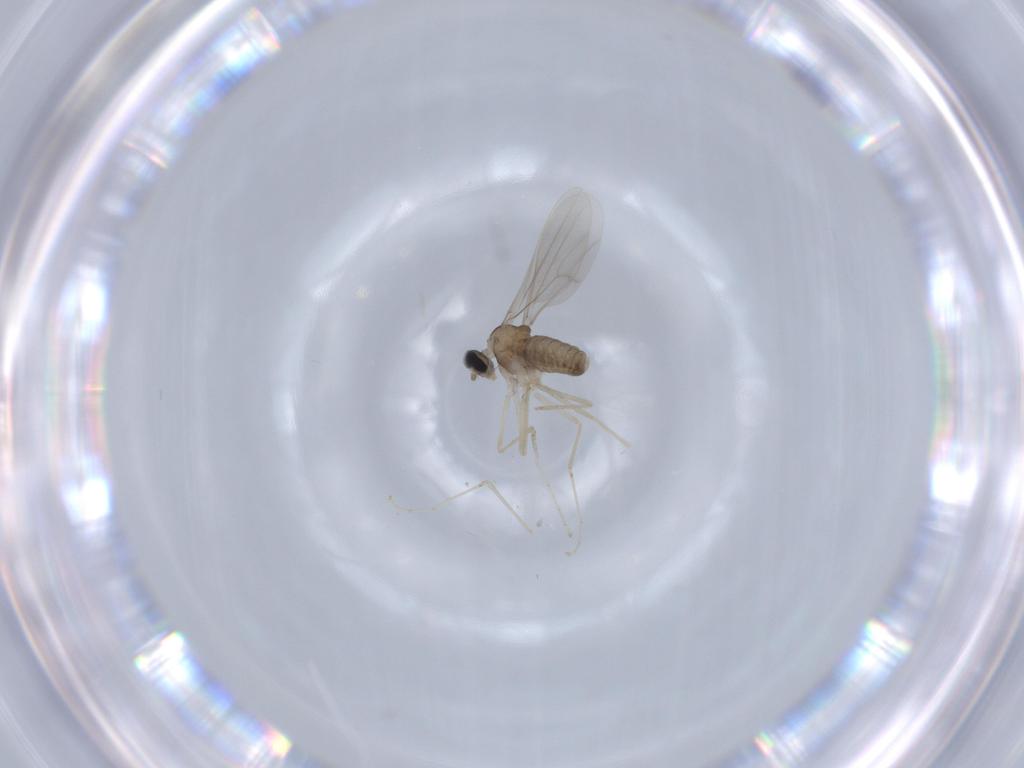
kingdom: Animalia
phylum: Arthropoda
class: Insecta
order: Diptera
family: Cecidomyiidae
